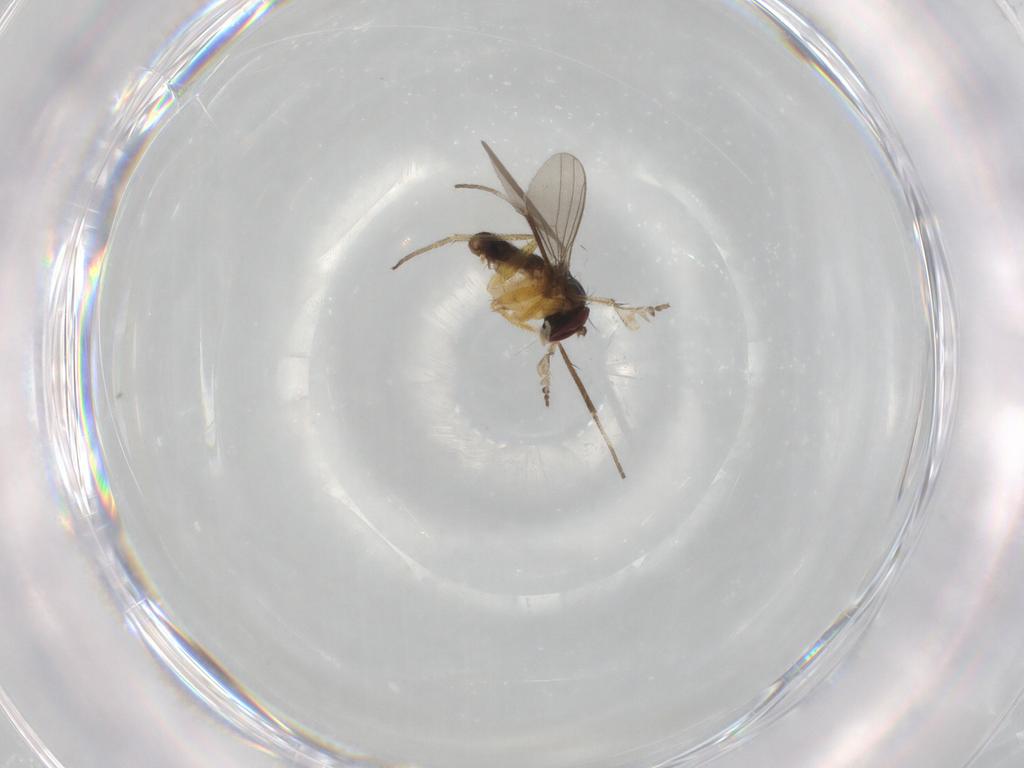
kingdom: Animalia
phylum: Arthropoda
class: Insecta
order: Diptera
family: Dolichopodidae
